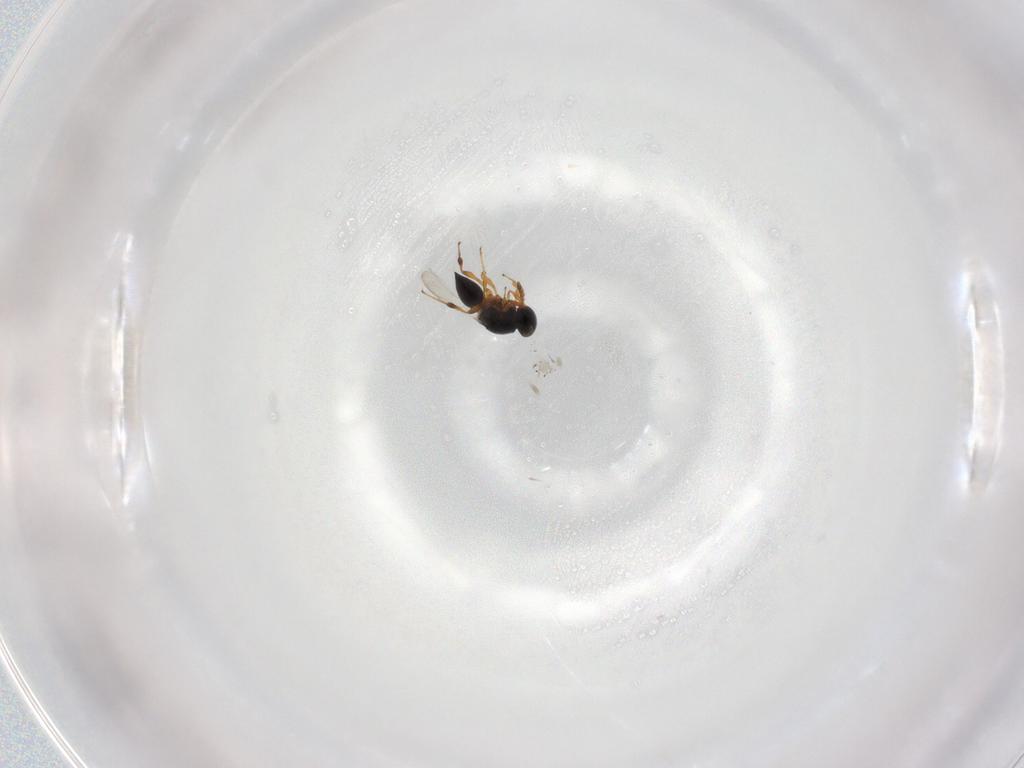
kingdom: Animalia
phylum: Arthropoda
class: Insecta
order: Hymenoptera
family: Platygastridae
